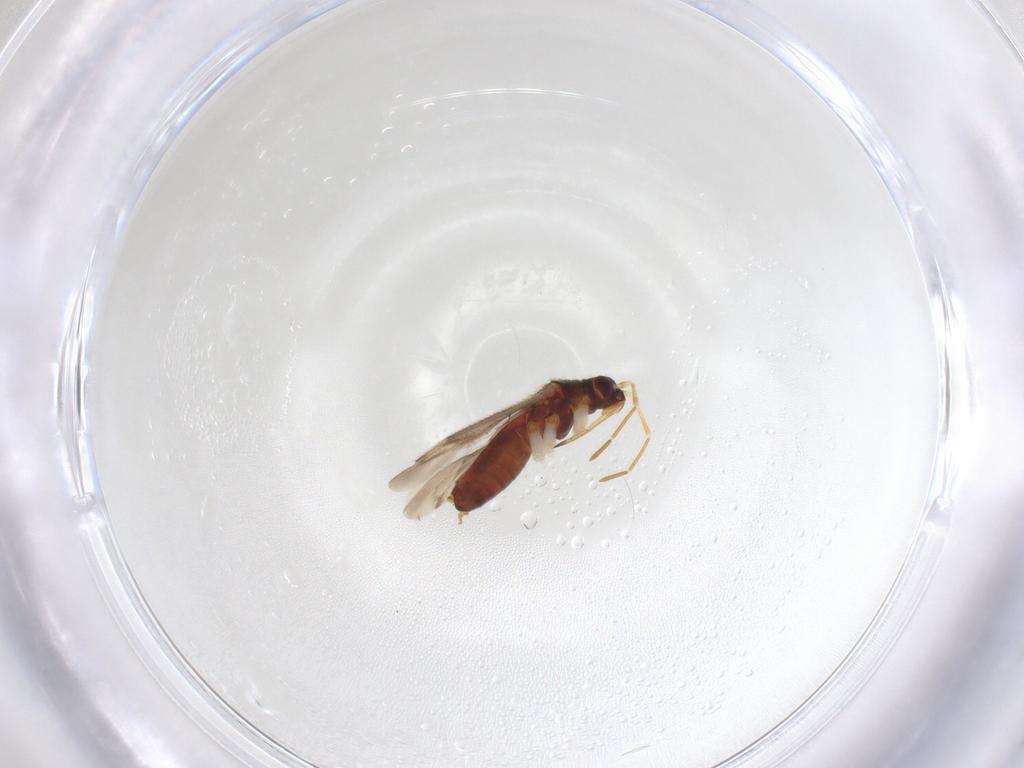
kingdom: Animalia
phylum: Arthropoda
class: Insecta
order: Hemiptera
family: Miridae
